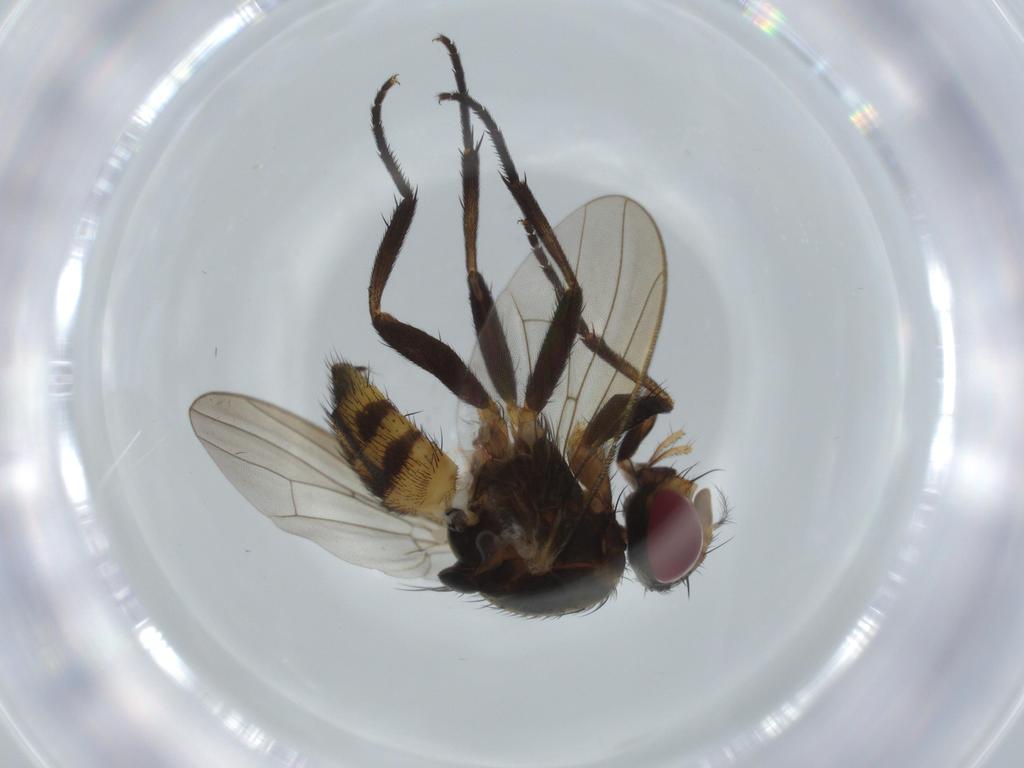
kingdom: Animalia
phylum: Arthropoda
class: Insecta
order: Diptera
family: Anthomyiidae
